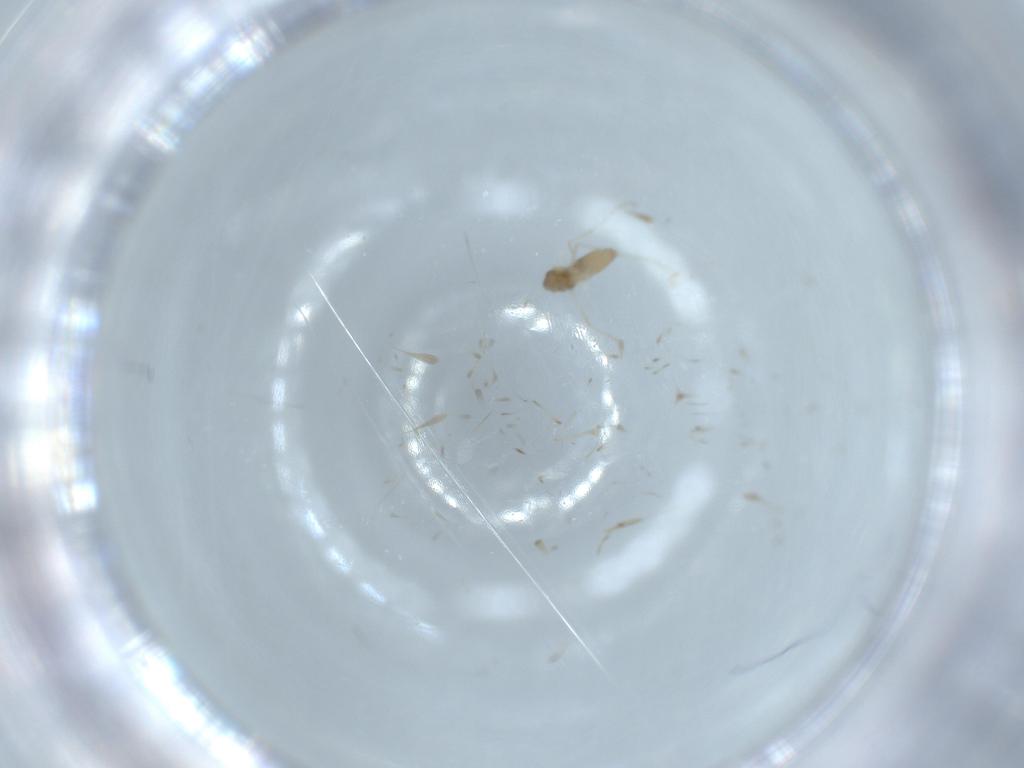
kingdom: Animalia
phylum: Arthropoda
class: Insecta
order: Diptera
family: Cecidomyiidae
